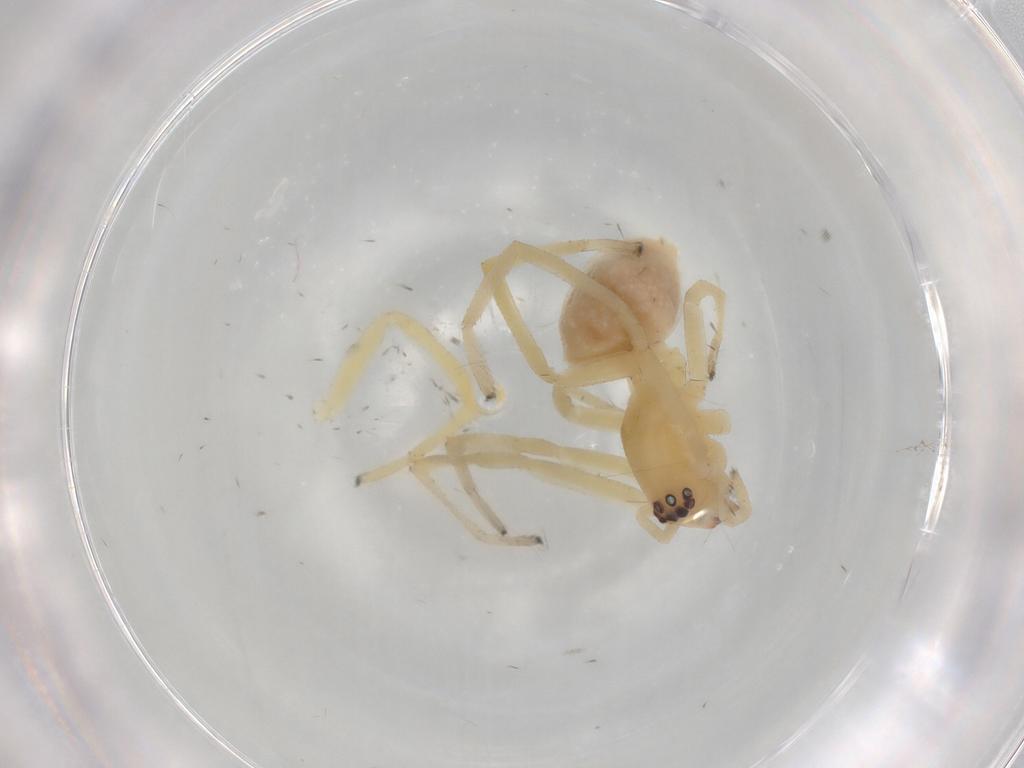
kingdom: Animalia
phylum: Arthropoda
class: Arachnida
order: Araneae
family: Cheiracanthiidae
